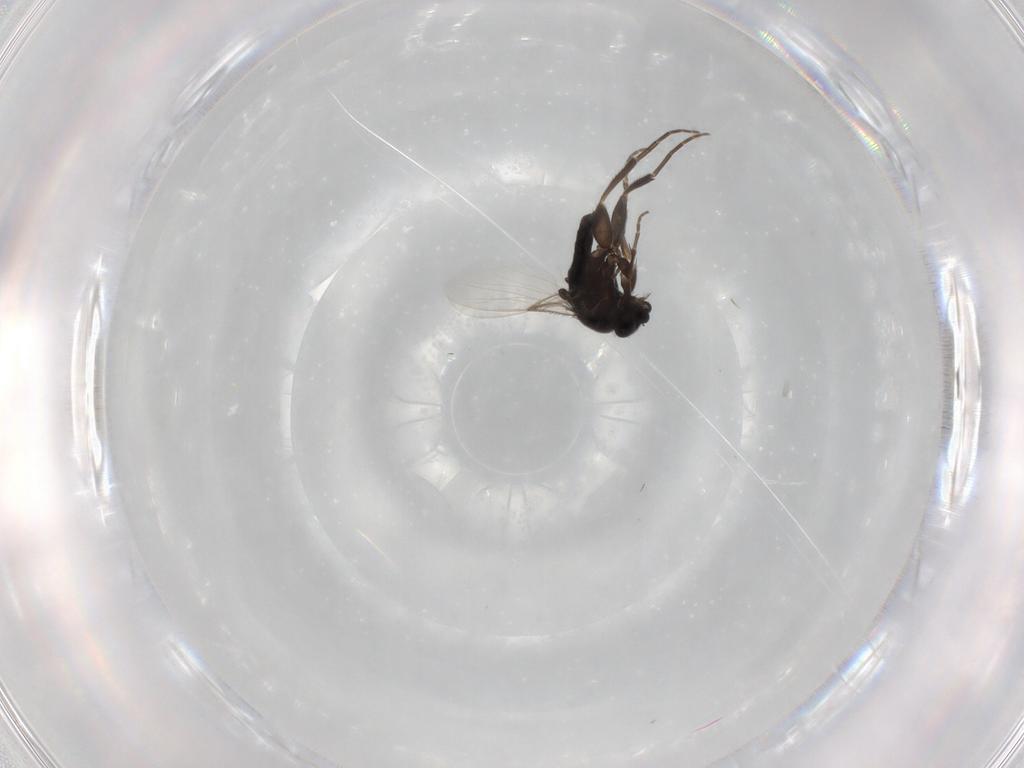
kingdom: Animalia
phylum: Arthropoda
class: Insecta
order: Diptera
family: Phoridae
